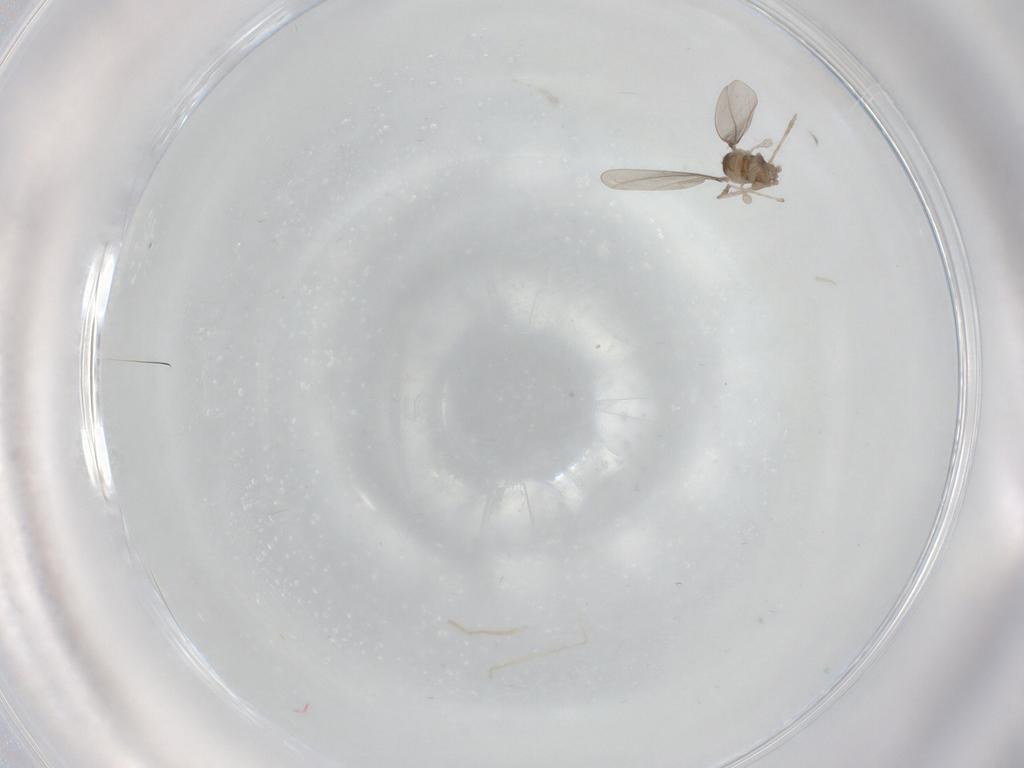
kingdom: Animalia
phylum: Arthropoda
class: Insecta
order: Diptera
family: Cecidomyiidae
